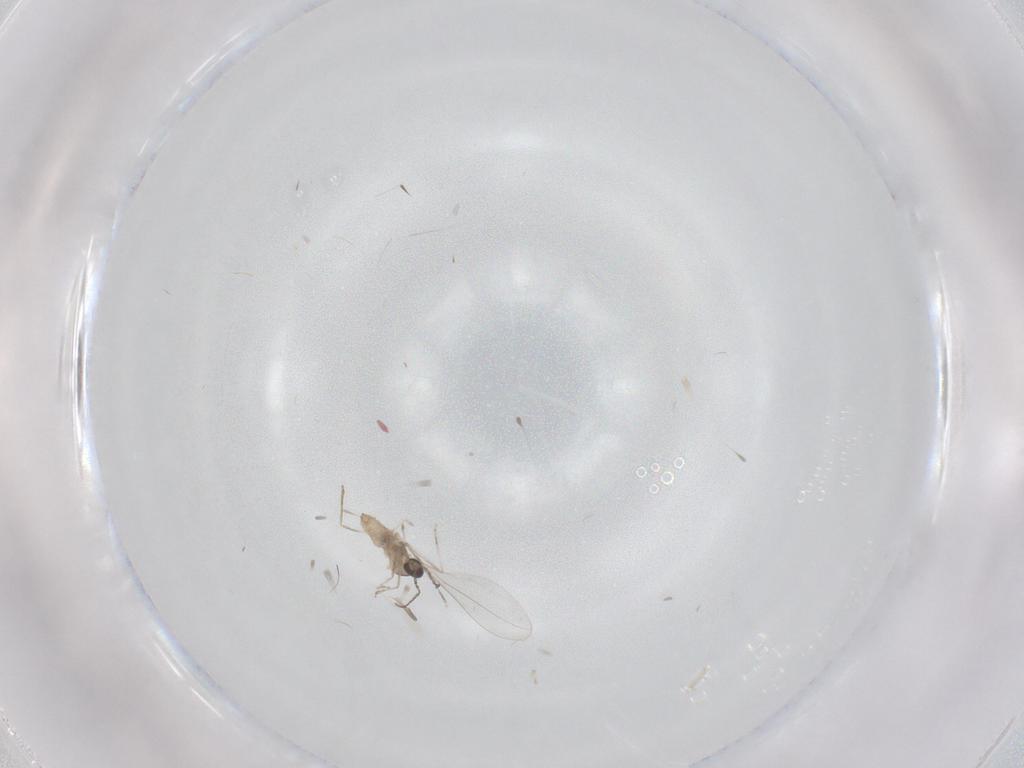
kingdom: Animalia
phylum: Arthropoda
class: Insecta
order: Diptera
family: Cecidomyiidae
